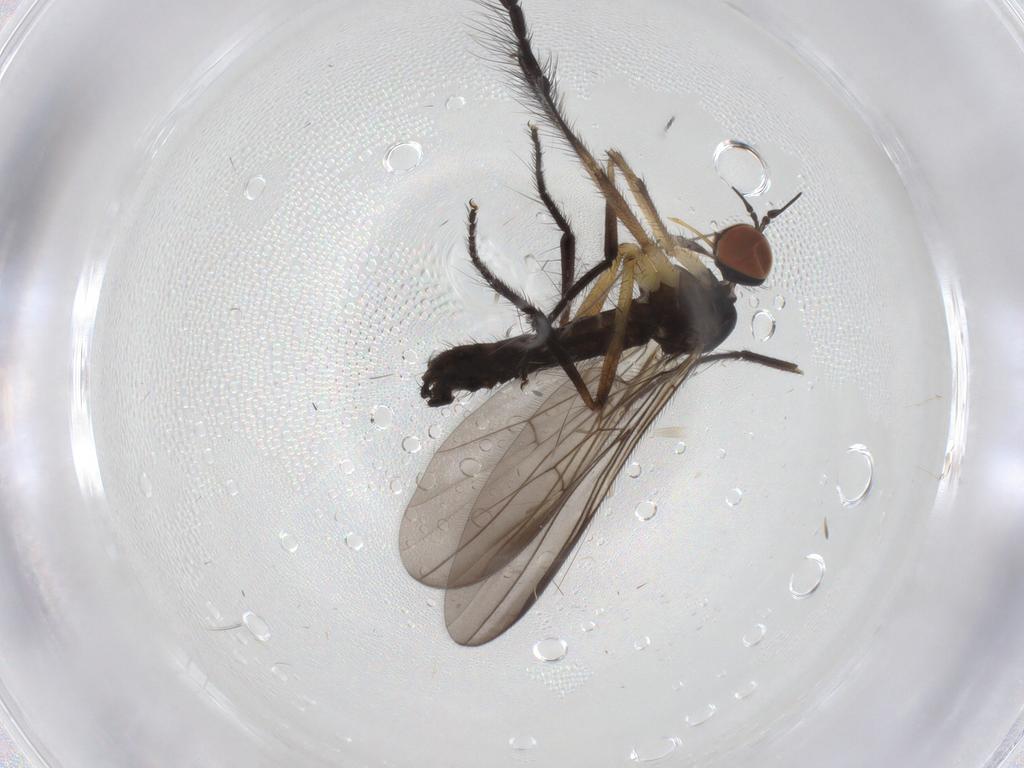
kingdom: Animalia
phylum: Arthropoda
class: Insecta
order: Diptera
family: Empididae
